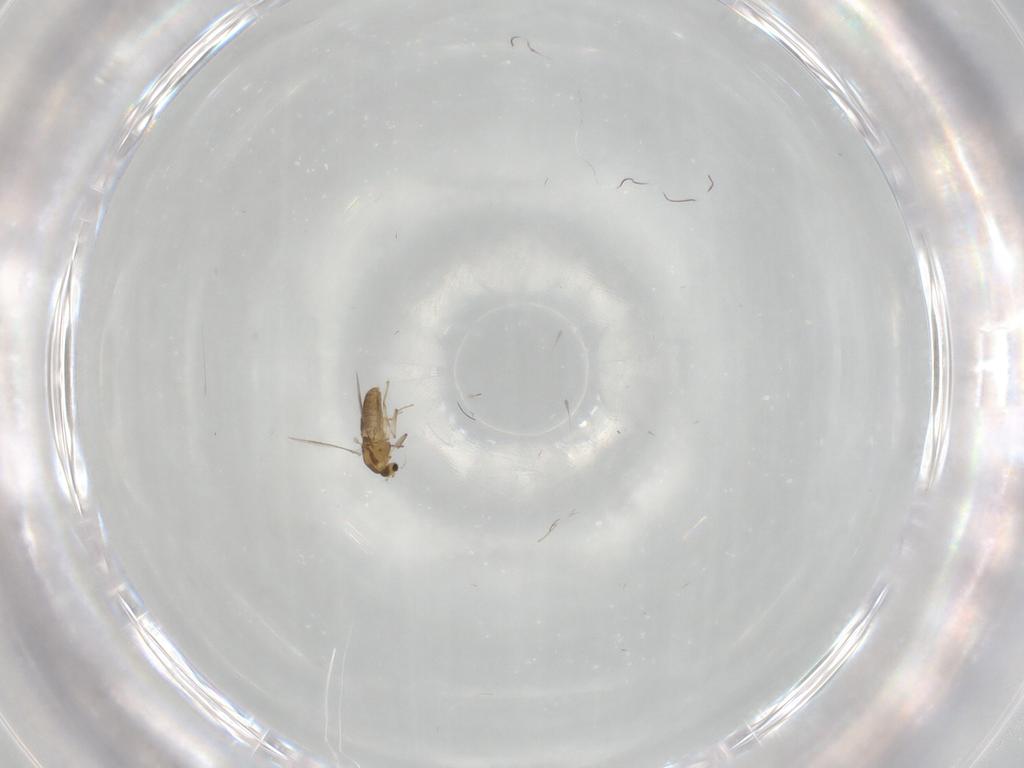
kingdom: Animalia
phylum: Arthropoda
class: Insecta
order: Diptera
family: Chironomidae
